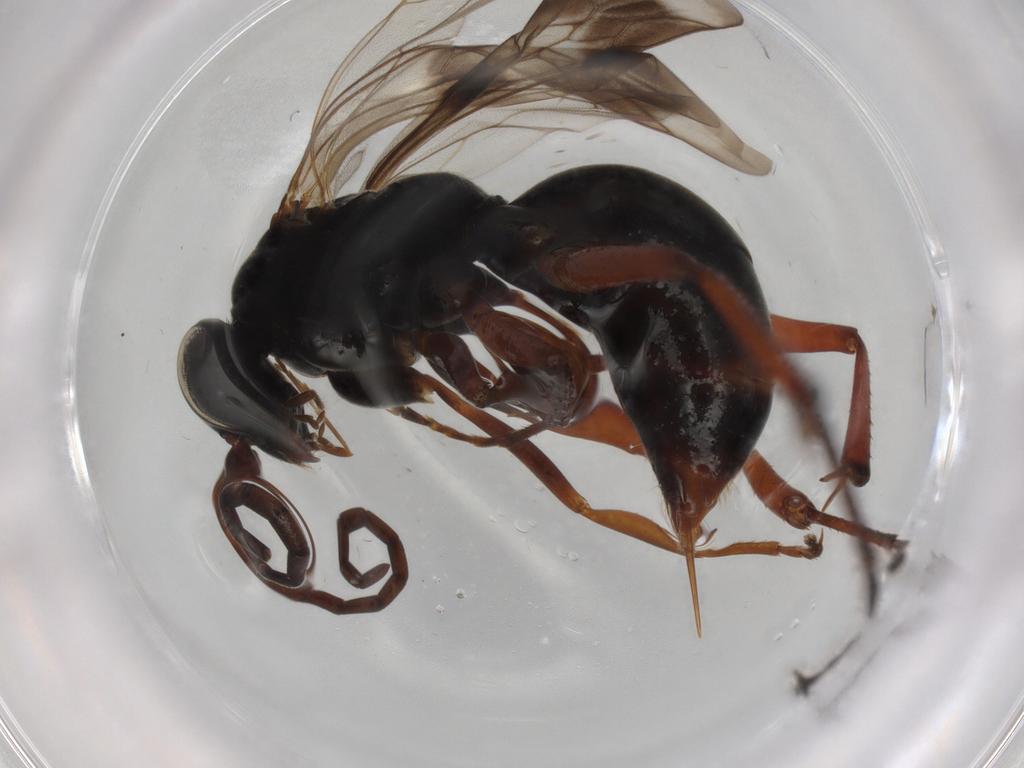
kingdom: Animalia
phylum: Arthropoda
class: Insecta
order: Hymenoptera
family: Pompilidae
